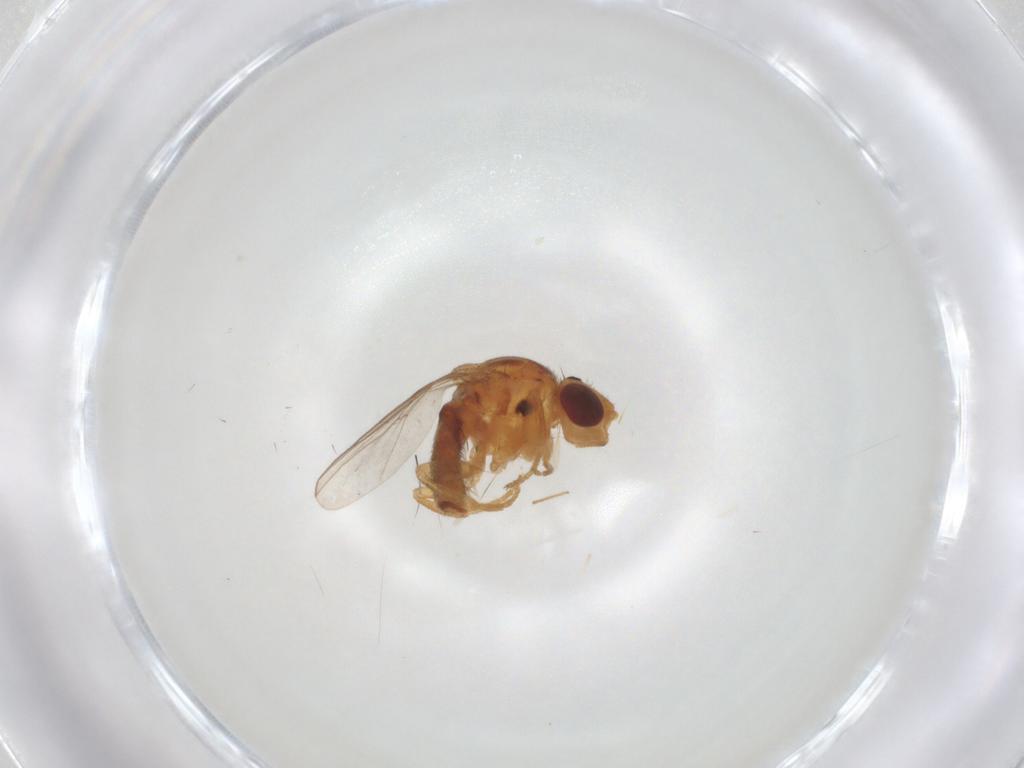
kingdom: Animalia
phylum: Arthropoda
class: Insecta
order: Diptera
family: Chloropidae
